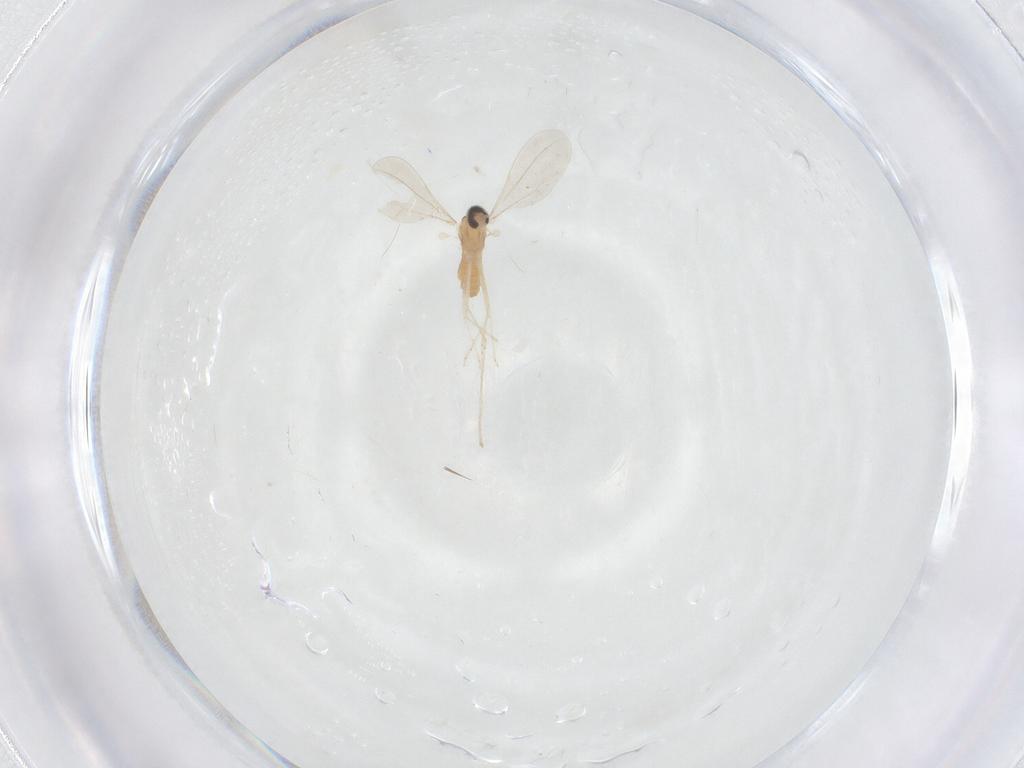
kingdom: Animalia
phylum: Arthropoda
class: Insecta
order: Diptera
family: Cecidomyiidae
